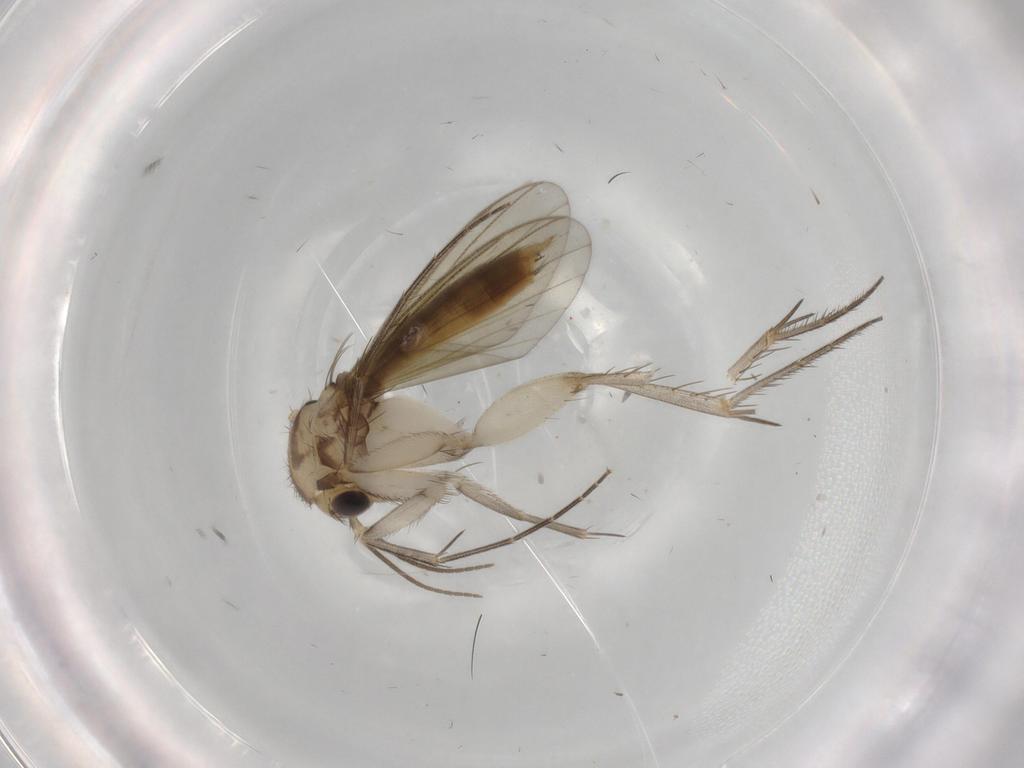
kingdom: Animalia
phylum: Arthropoda
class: Insecta
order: Diptera
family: Mycetophilidae
